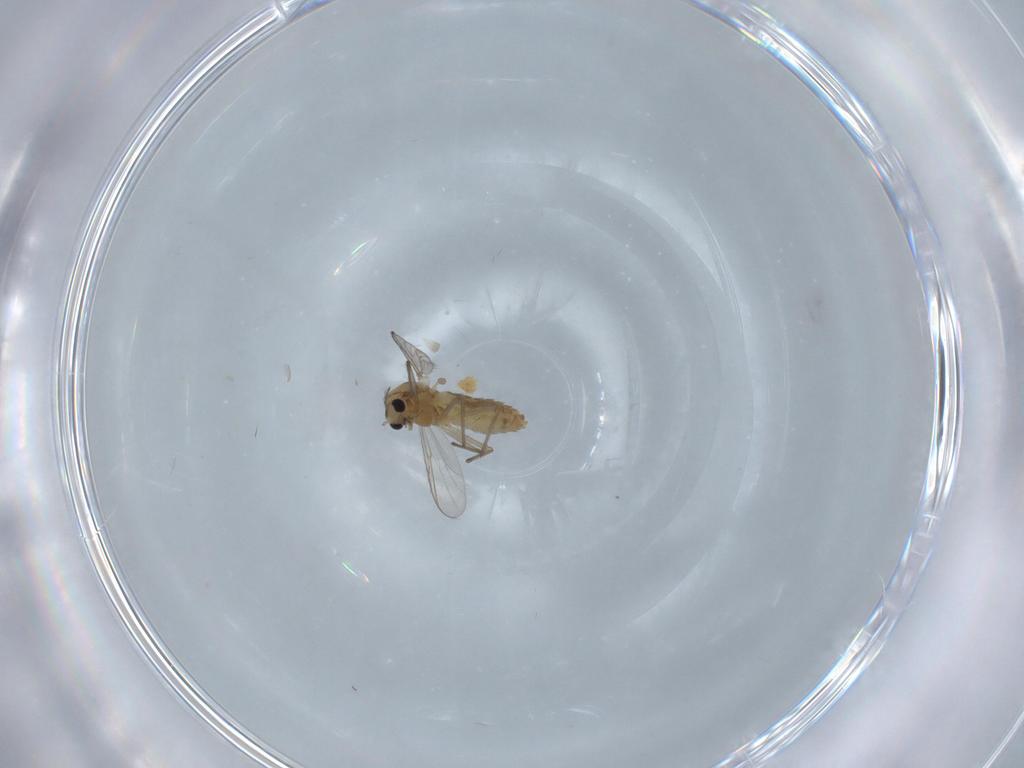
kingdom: Animalia
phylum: Arthropoda
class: Insecta
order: Diptera
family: Chironomidae
